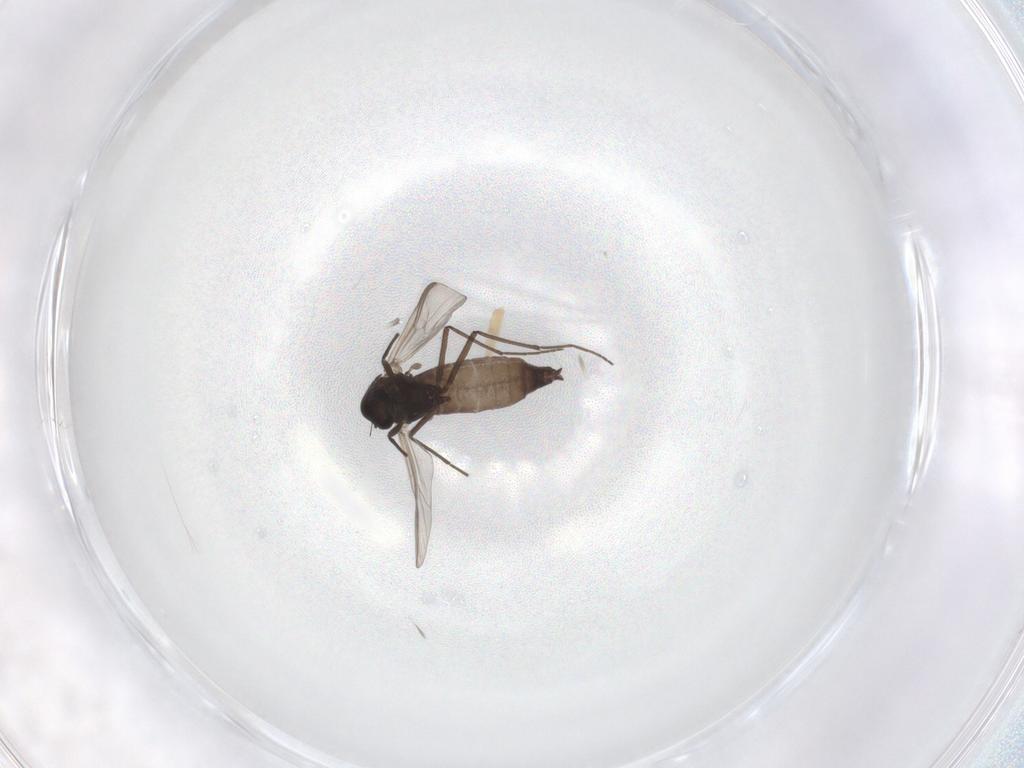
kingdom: Animalia
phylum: Arthropoda
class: Insecta
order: Diptera
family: Chironomidae
